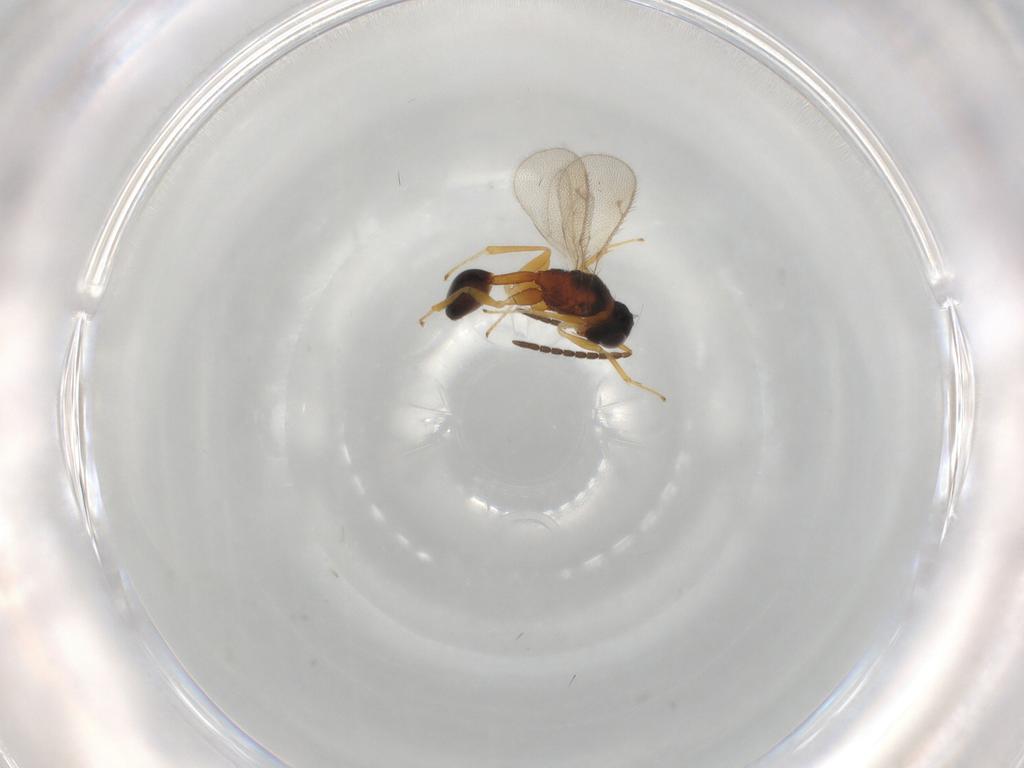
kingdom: Animalia
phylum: Arthropoda
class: Insecta
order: Hymenoptera
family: Diparidae
